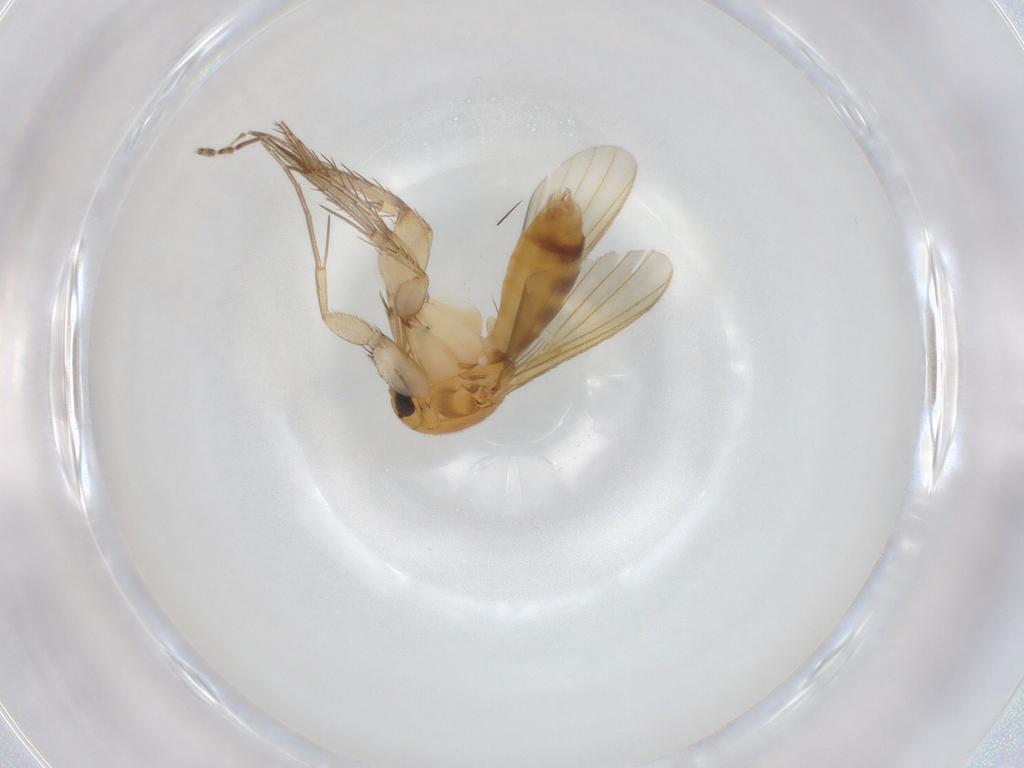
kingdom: Animalia
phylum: Arthropoda
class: Insecta
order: Diptera
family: Cecidomyiidae
